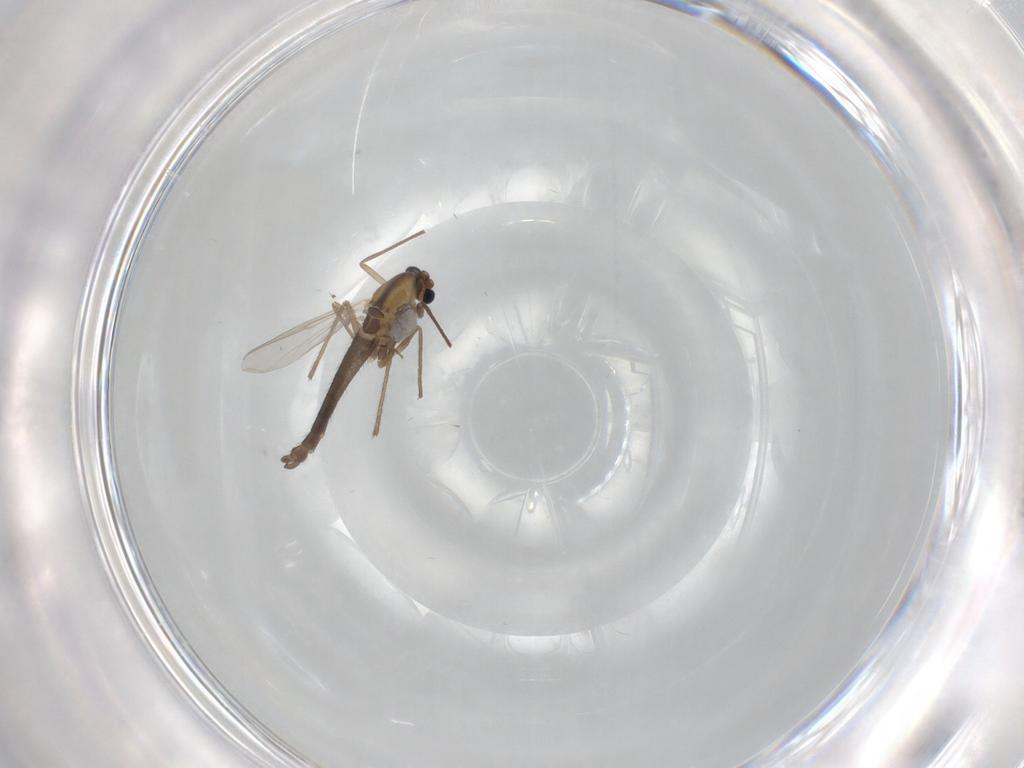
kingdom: Animalia
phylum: Arthropoda
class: Insecta
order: Diptera
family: Chironomidae
